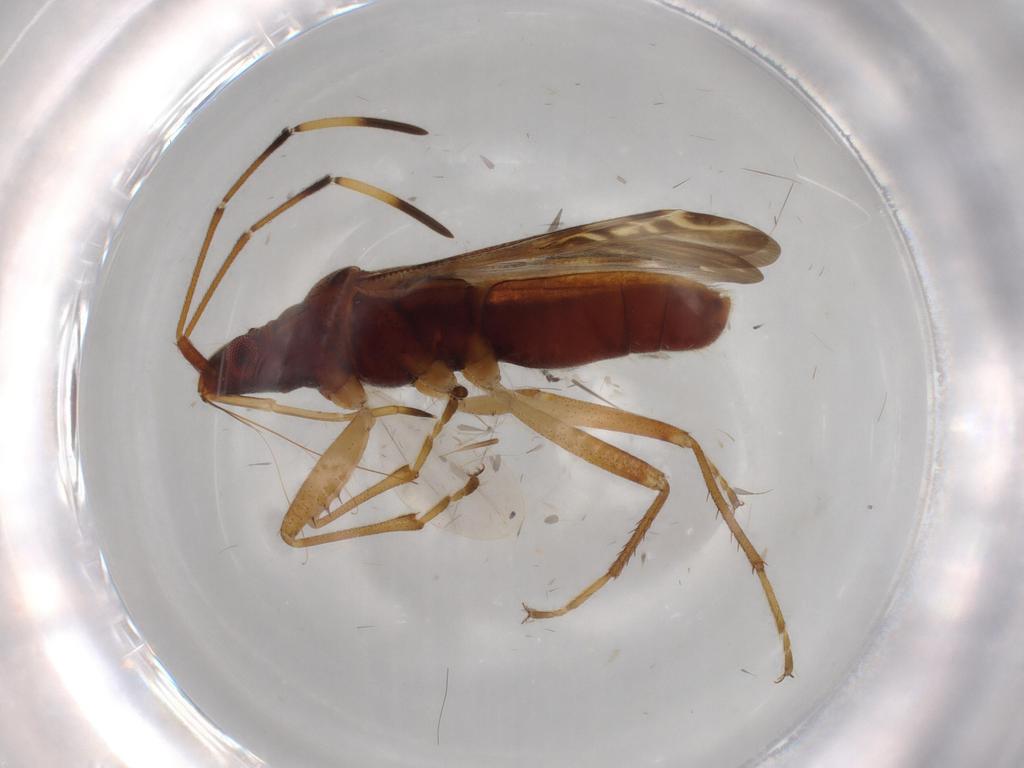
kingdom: Animalia
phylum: Arthropoda
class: Insecta
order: Hemiptera
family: Rhyparochromidae
